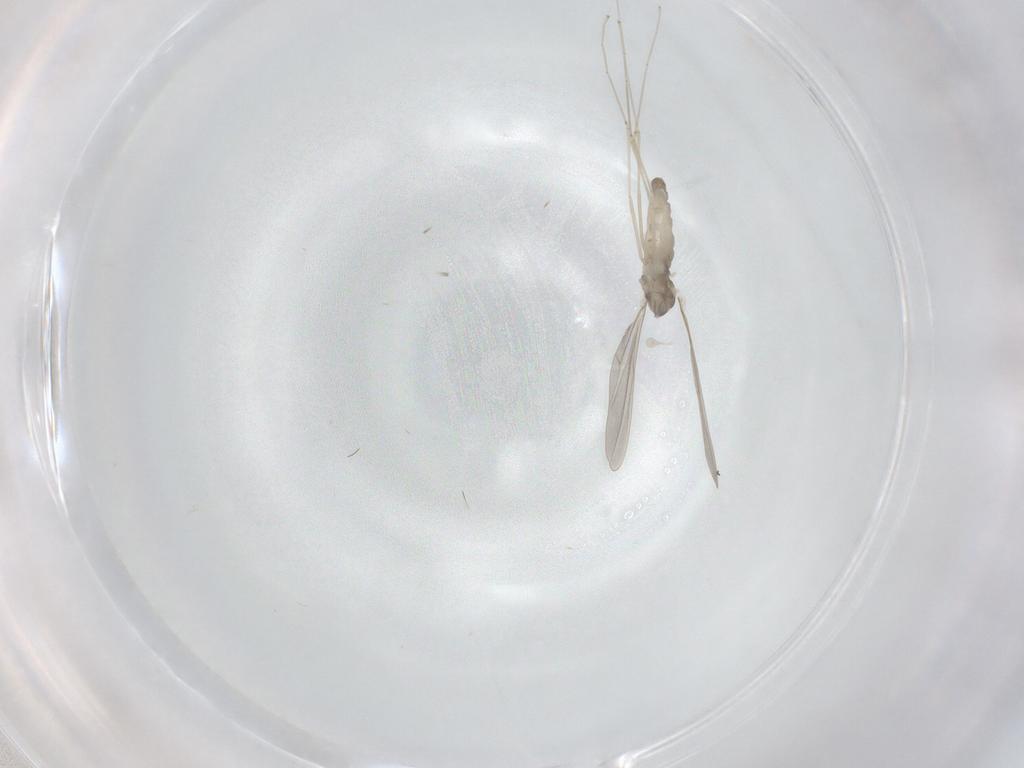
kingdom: Animalia
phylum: Arthropoda
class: Insecta
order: Diptera
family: Cecidomyiidae
